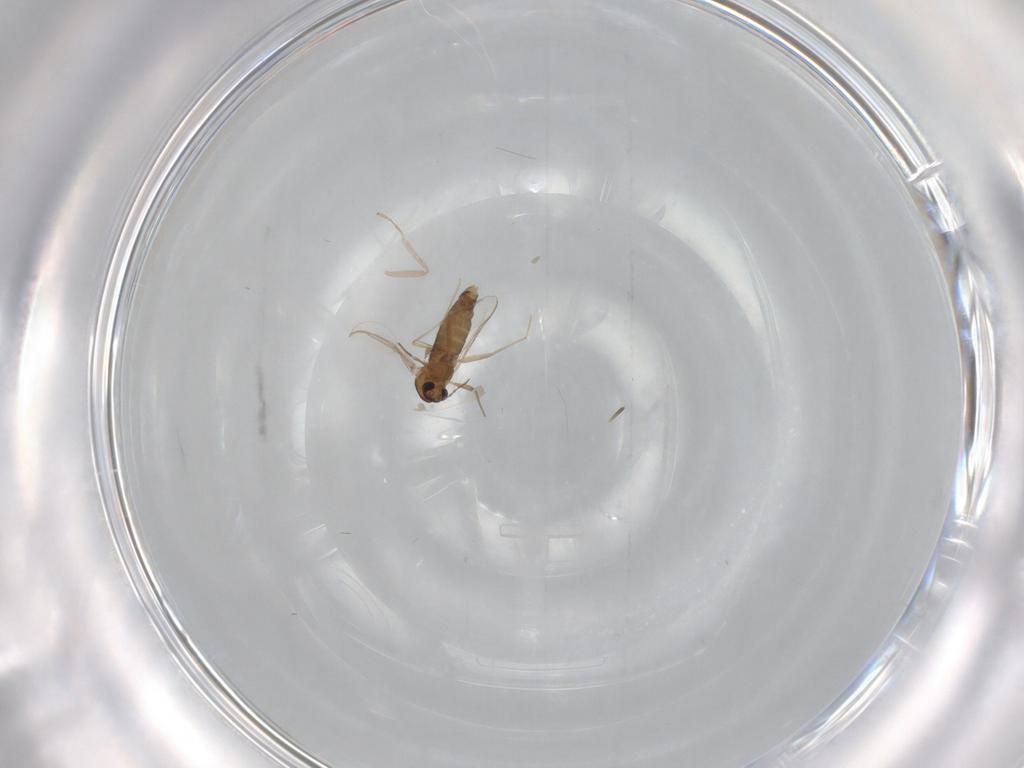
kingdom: Animalia
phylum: Arthropoda
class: Insecta
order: Diptera
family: Chironomidae
